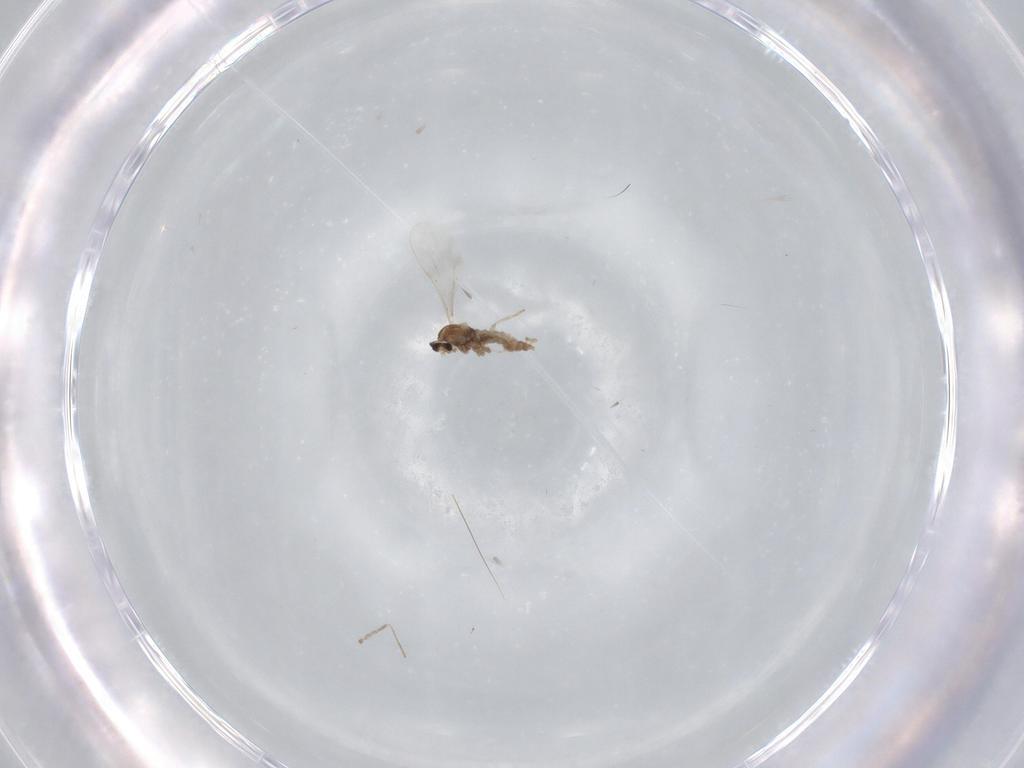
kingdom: Animalia
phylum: Arthropoda
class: Insecta
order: Diptera
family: Cecidomyiidae
